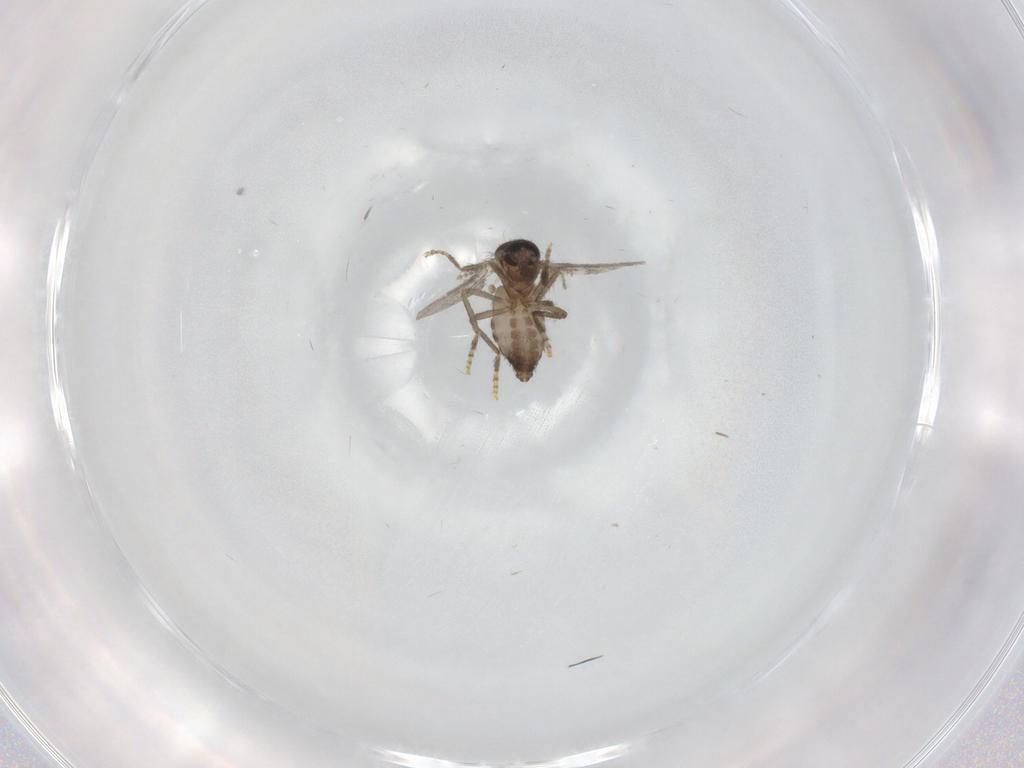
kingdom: Animalia
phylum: Arthropoda
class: Insecta
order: Diptera
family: Ceratopogonidae
